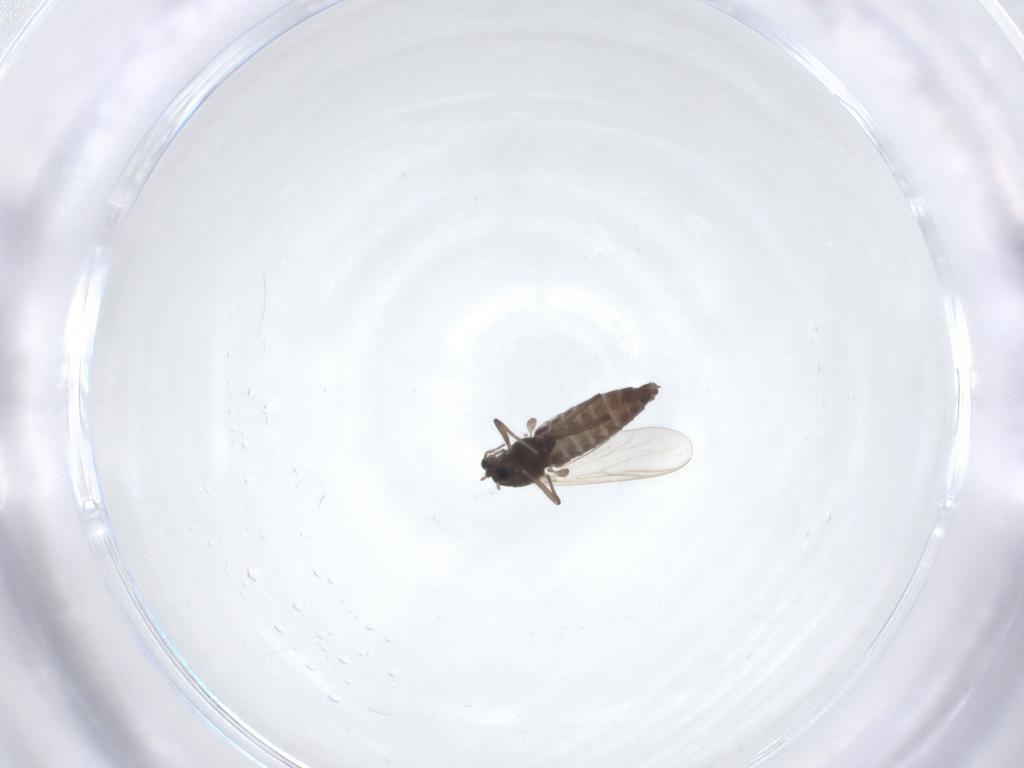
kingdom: Animalia
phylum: Arthropoda
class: Insecta
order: Diptera
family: Chironomidae
